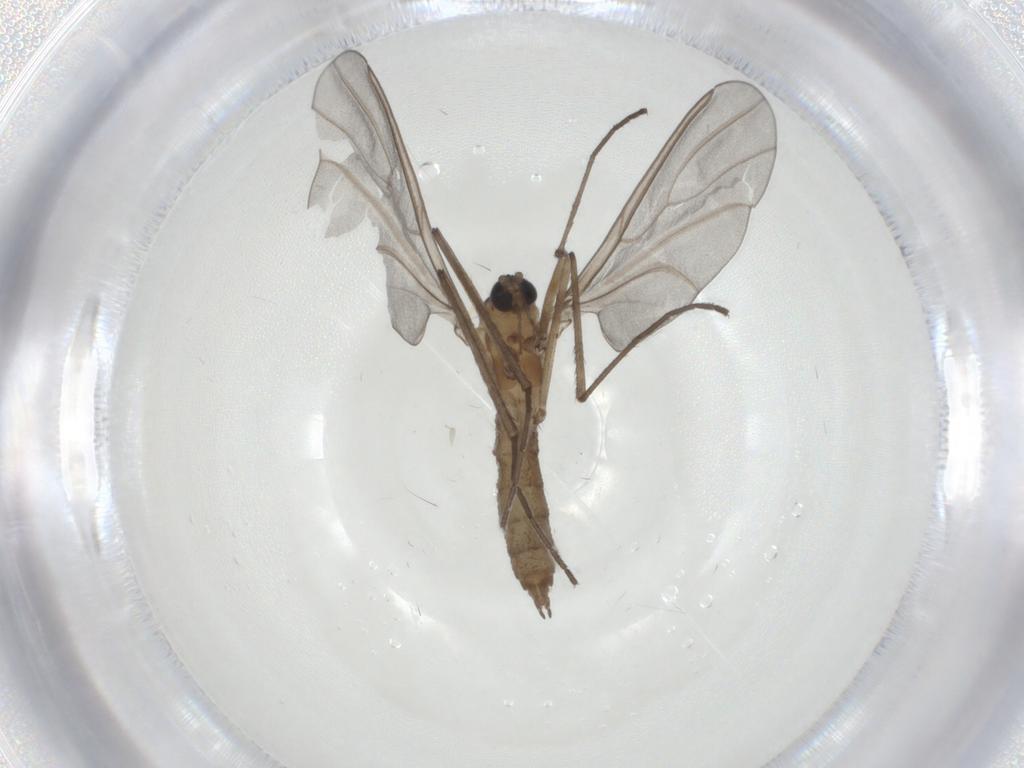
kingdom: Animalia
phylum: Arthropoda
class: Insecta
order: Diptera
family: Cecidomyiidae
